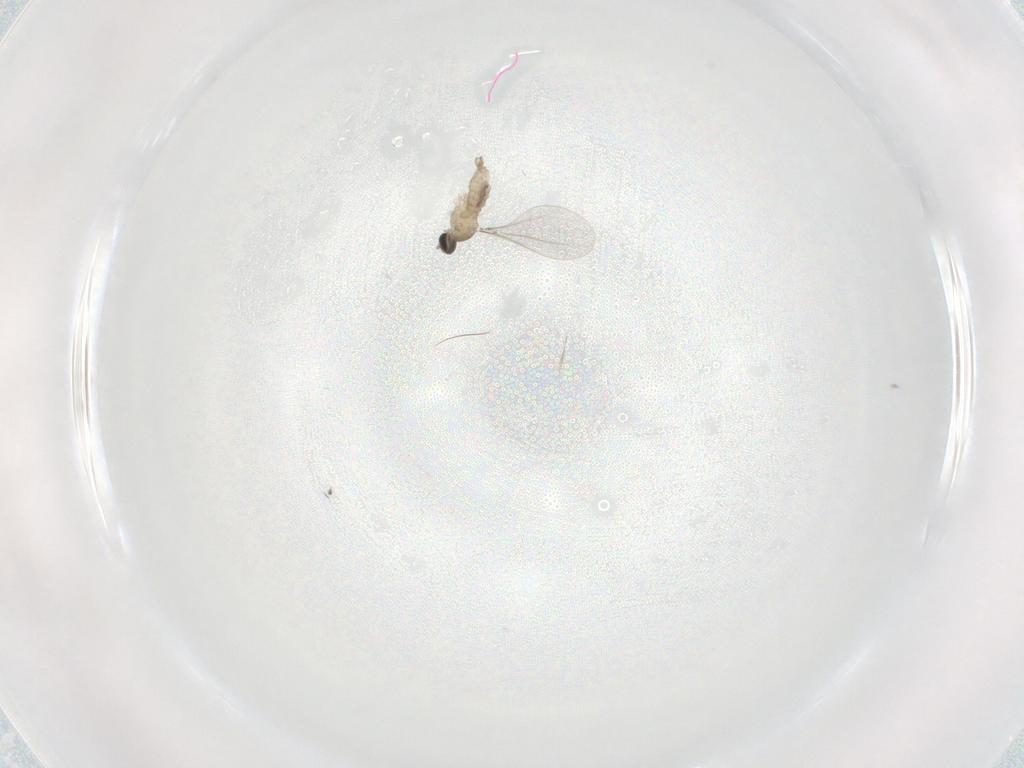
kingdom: Animalia
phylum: Arthropoda
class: Insecta
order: Diptera
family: Cecidomyiidae
